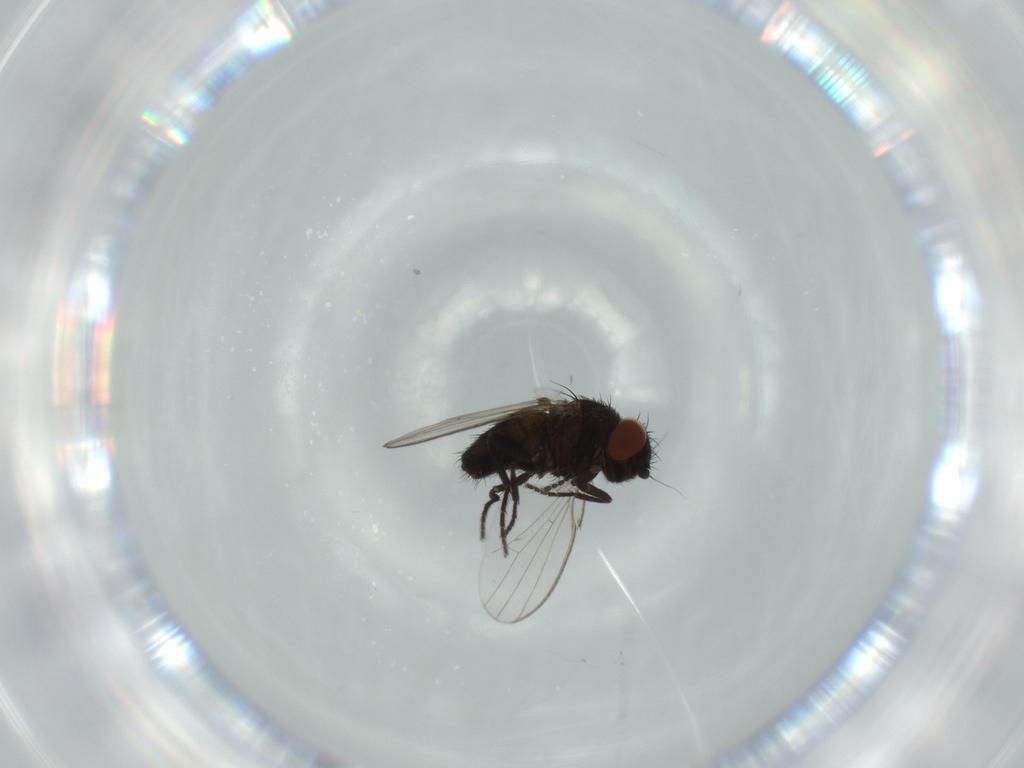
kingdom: Animalia
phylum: Arthropoda
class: Insecta
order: Diptera
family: Milichiidae
